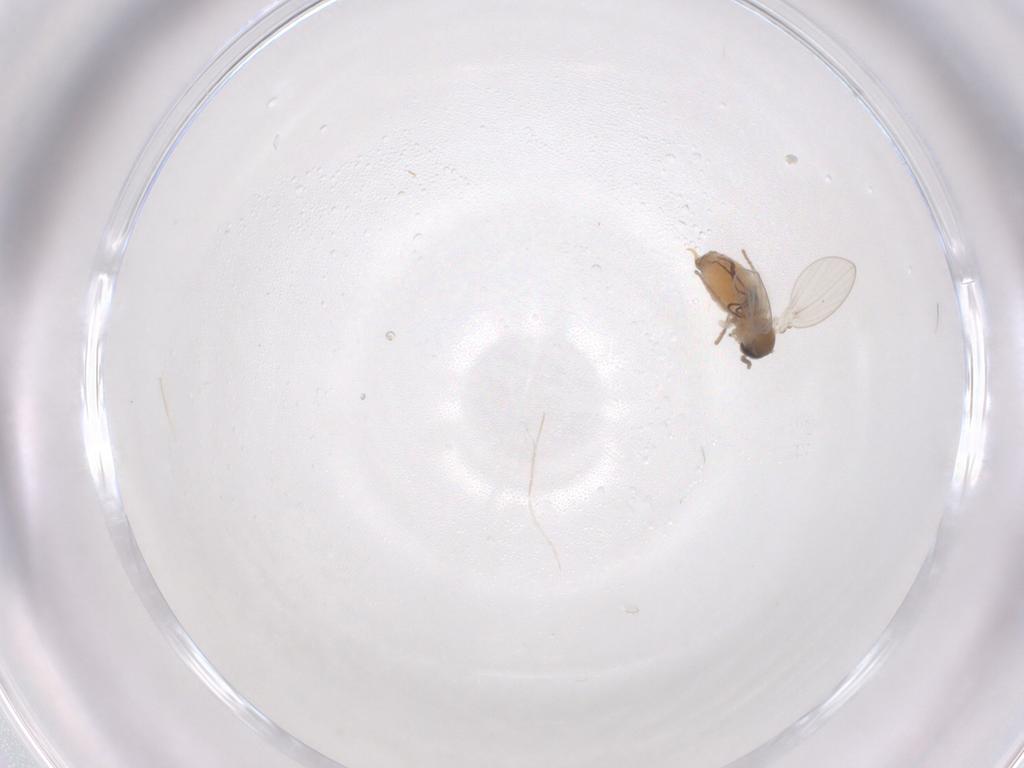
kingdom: Animalia
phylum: Arthropoda
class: Insecta
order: Diptera
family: Psychodidae
